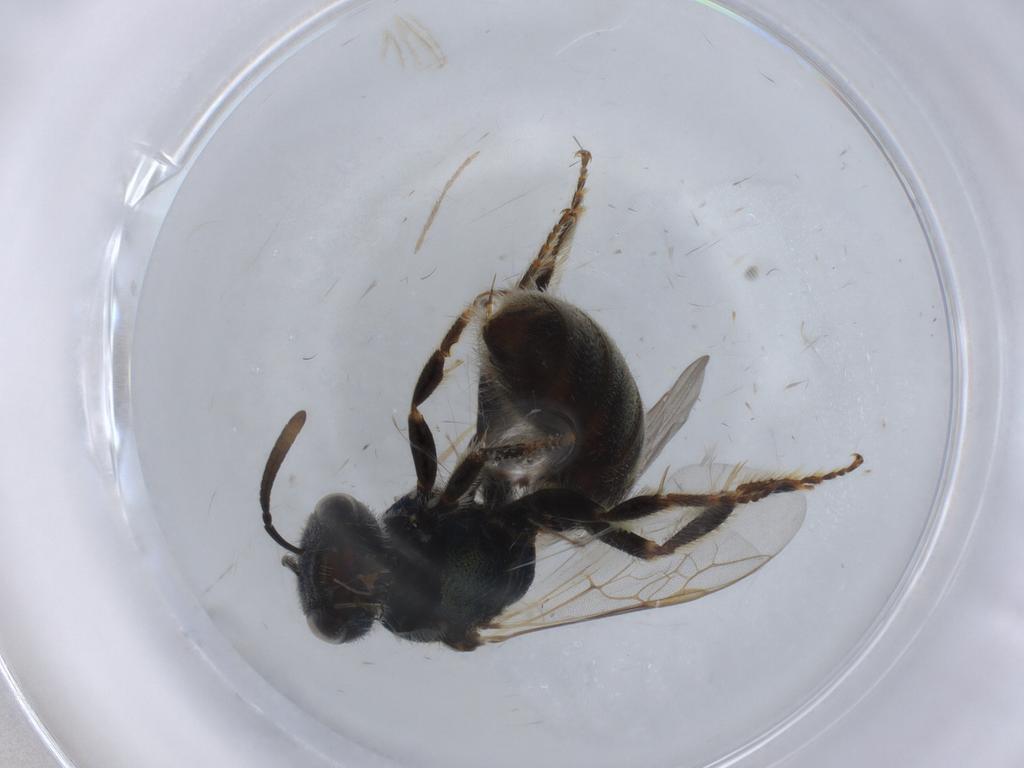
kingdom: Animalia
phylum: Arthropoda
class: Insecta
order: Hymenoptera
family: Halictidae
